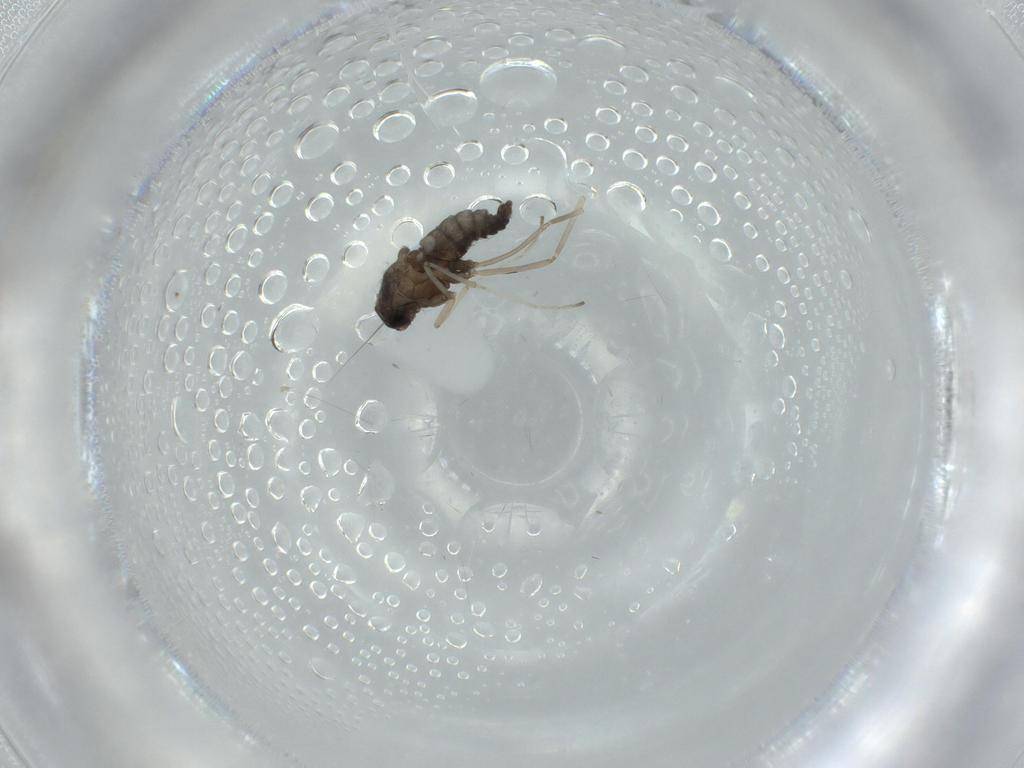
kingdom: Animalia
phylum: Arthropoda
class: Insecta
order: Diptera
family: Cecidomyiidae
